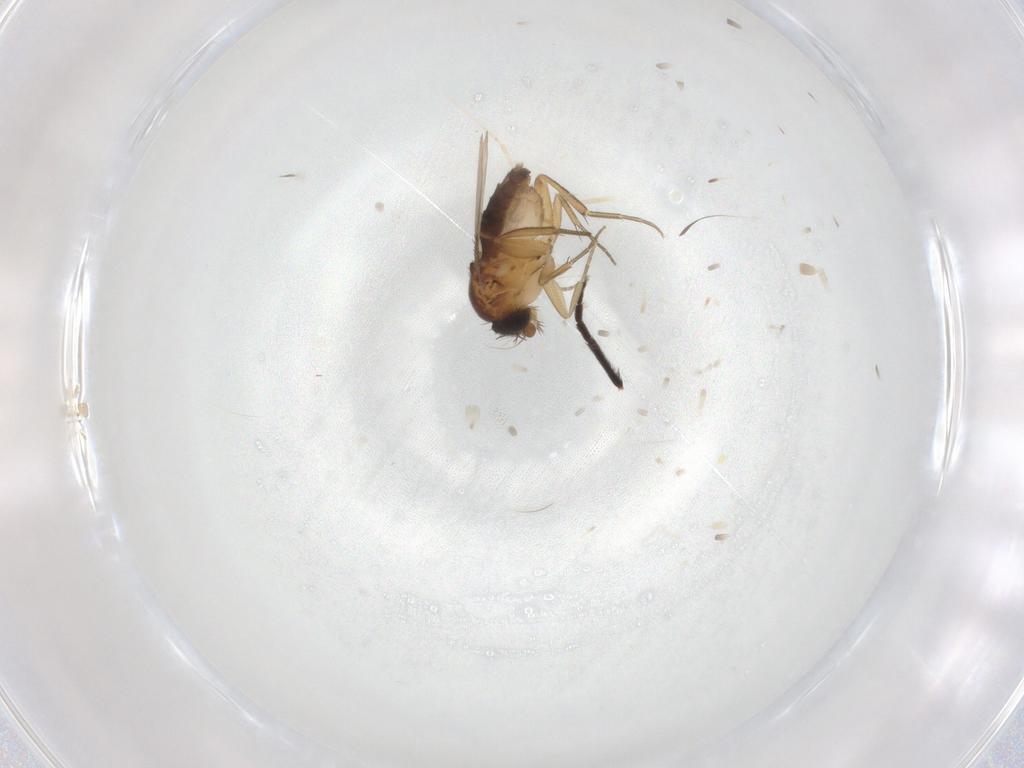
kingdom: Animalia
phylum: Arthropoda
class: Insecta
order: Diptera
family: Phoridae
